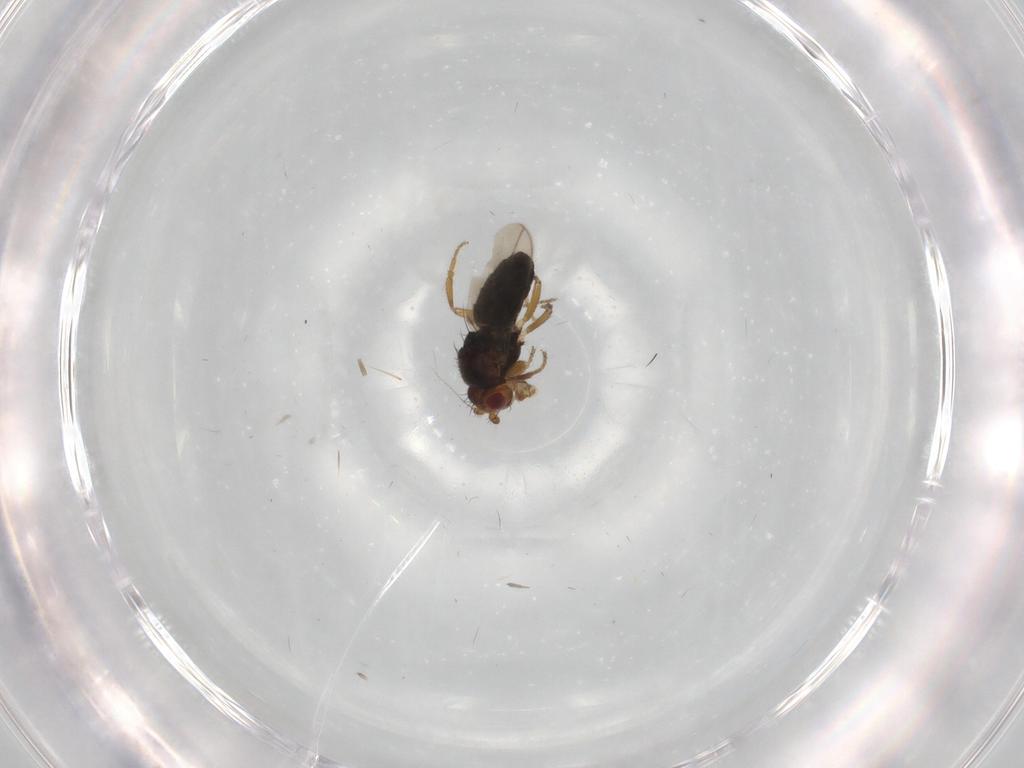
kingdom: Animalia
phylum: Arthropoda
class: Insecta
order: Diptera
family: Sphaeroceridae
